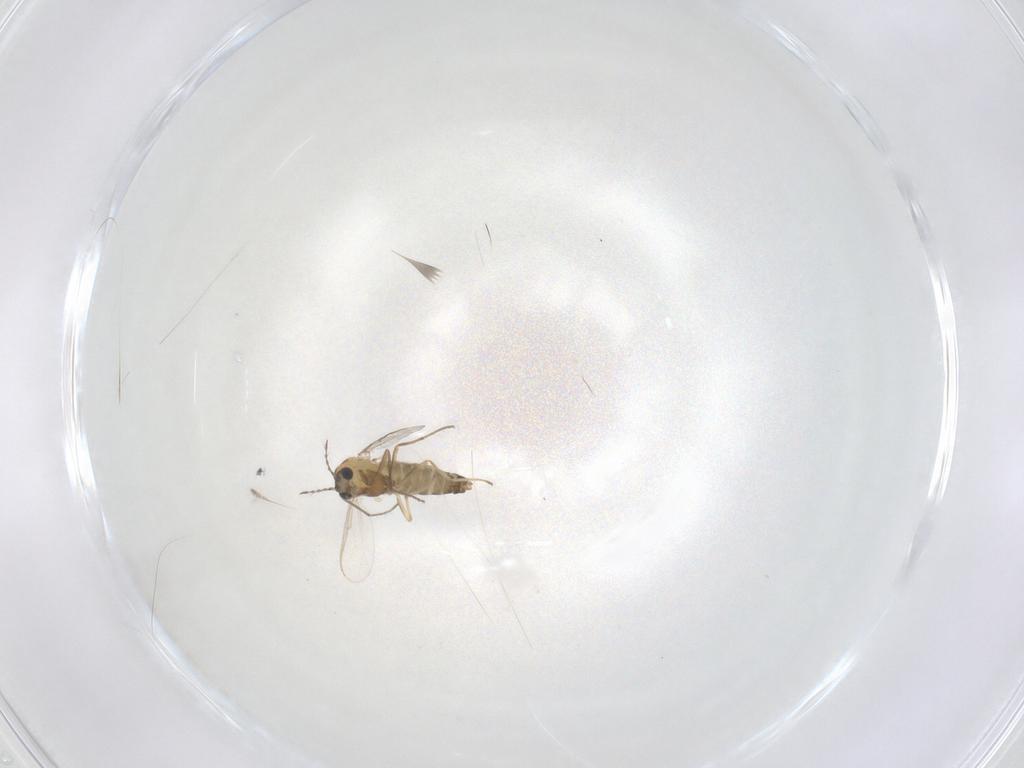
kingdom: Animalia
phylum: Arthropoda
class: Insecta
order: Diptera
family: Chironomidae
